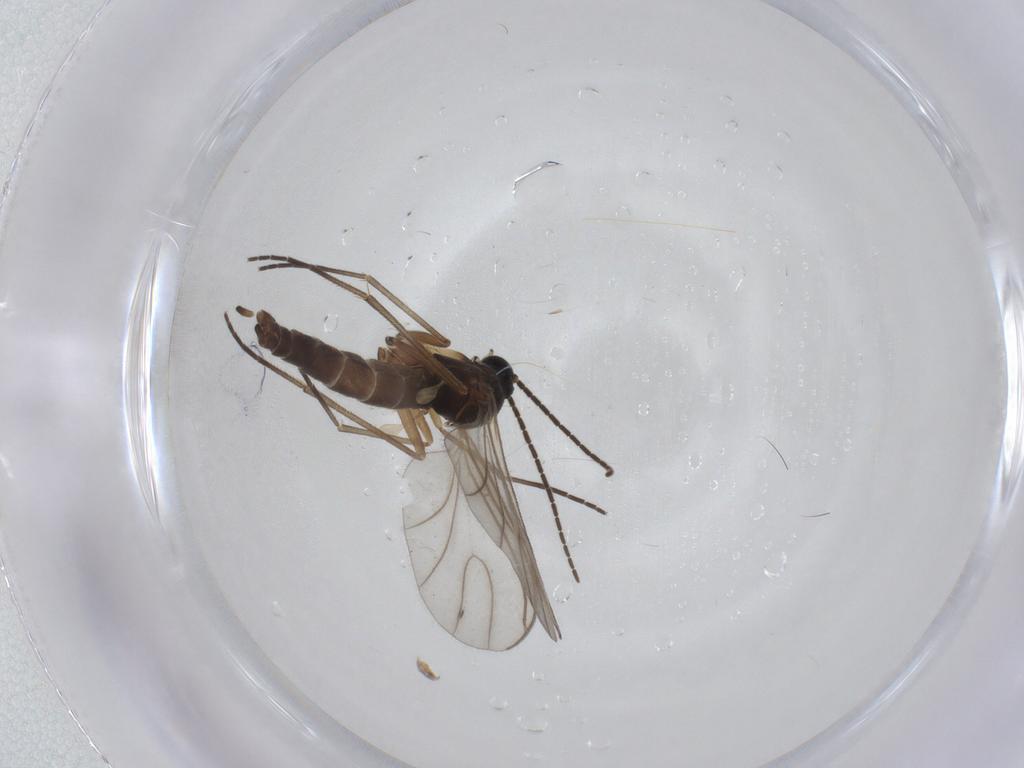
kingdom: Animalia
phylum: Arthropoda
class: Insecta
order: Diptera
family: Sciaridae
